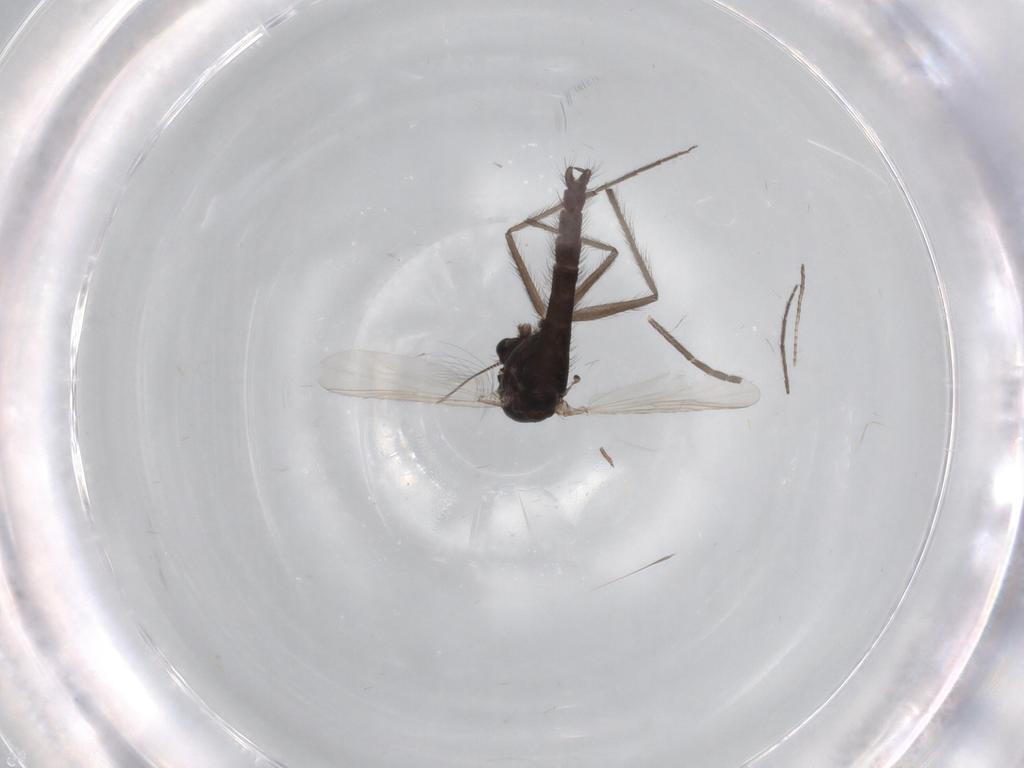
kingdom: Animalia
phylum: Arthropoda
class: Insecta
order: Diptera
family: Chironomidae
